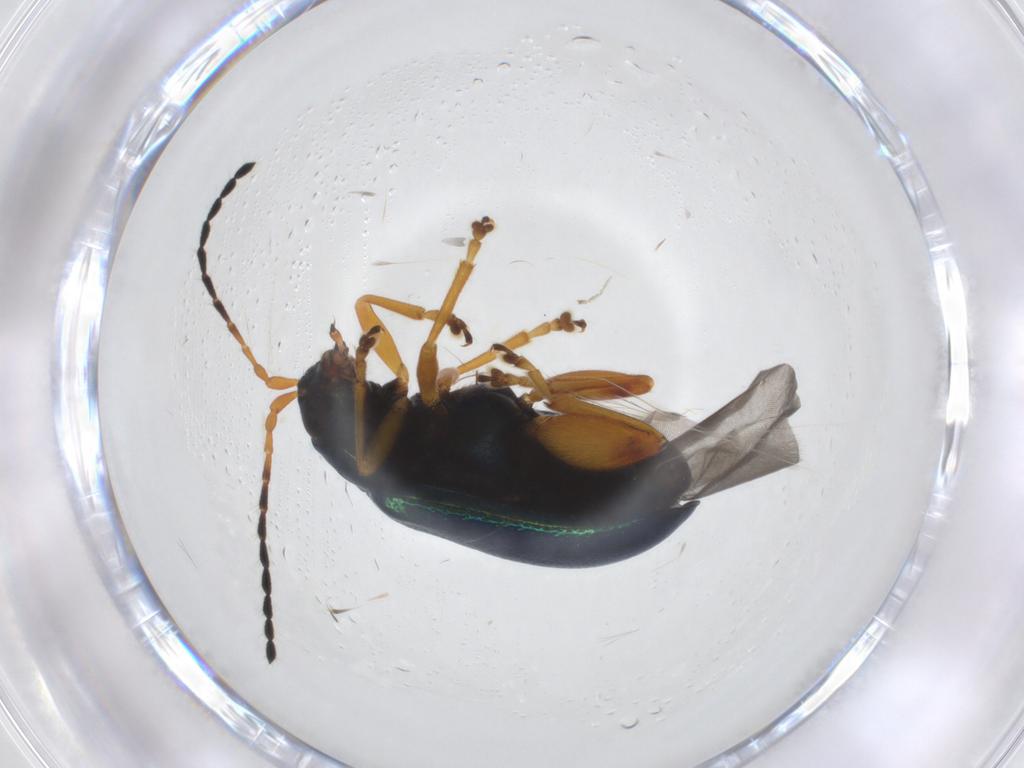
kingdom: Animalia
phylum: Arthropoda
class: Insecta
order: Coleoptera
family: Chrysomelidae
